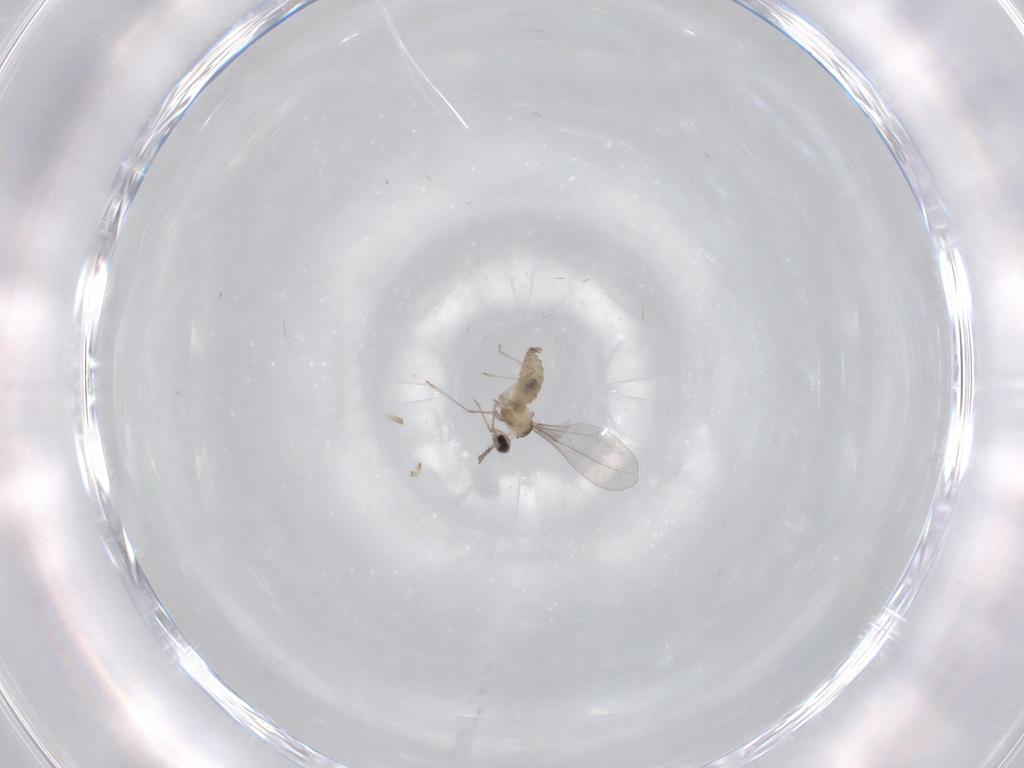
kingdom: Animalia
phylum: Arthropoda
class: Insecta
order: Diptera
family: Cecidomyiidae
